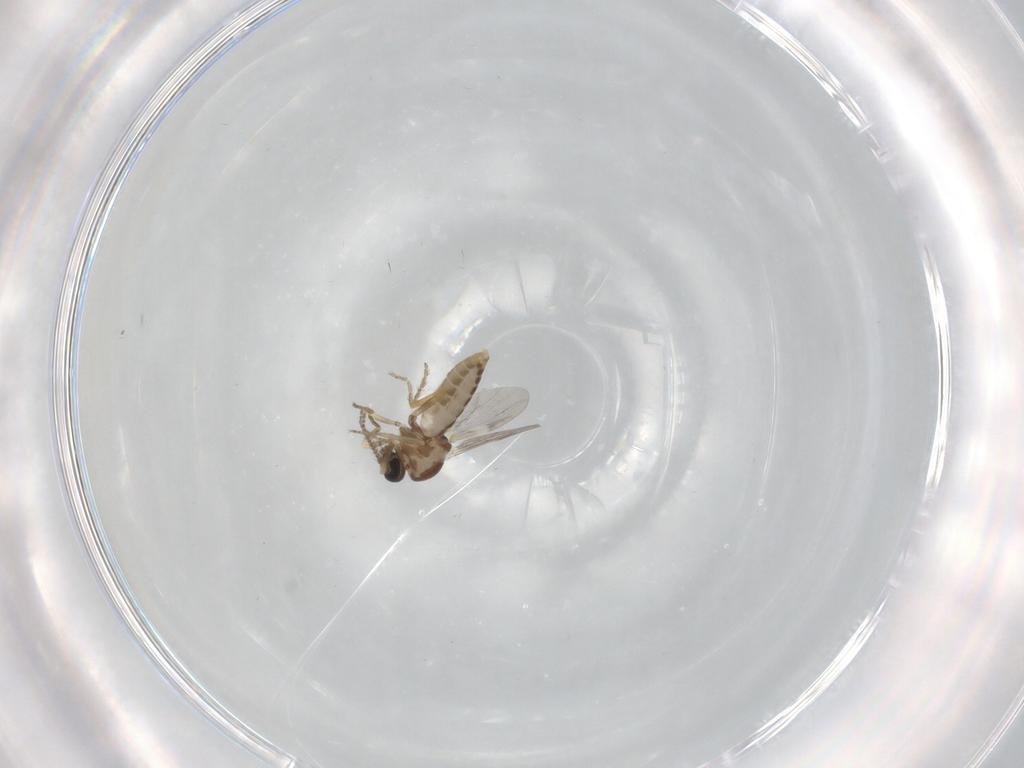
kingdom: Animalia
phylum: Arthropoda
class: Insecta
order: Diptera
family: Ceratopogonidae
